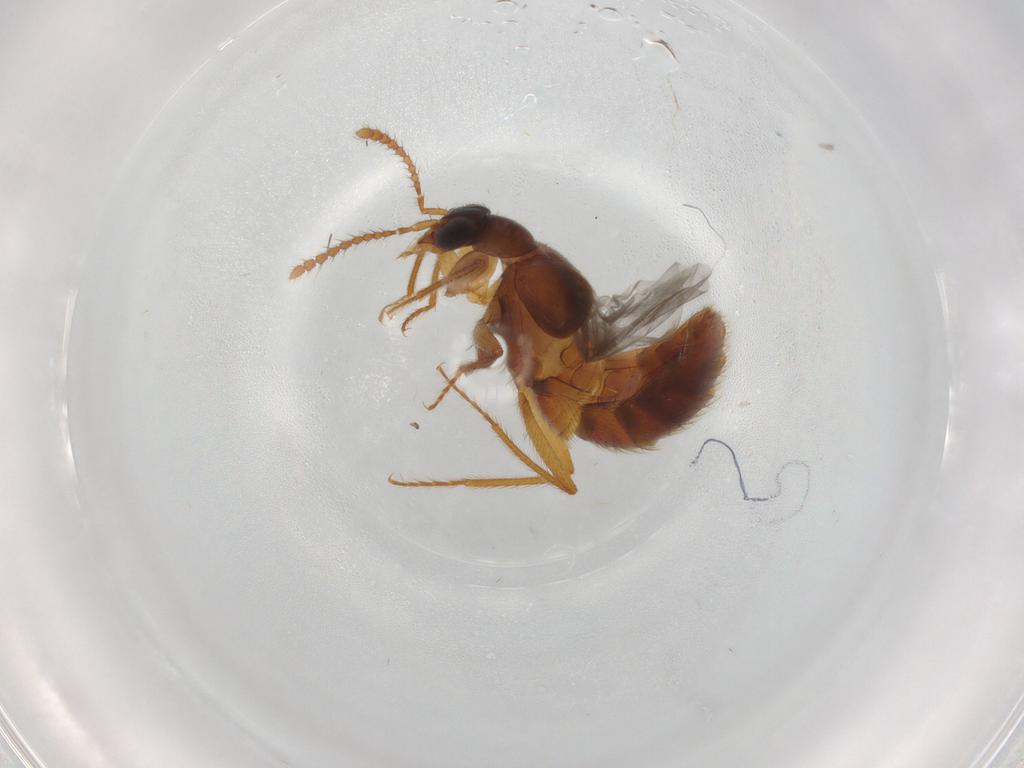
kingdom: Animalia
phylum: Arthropoda
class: Insecta
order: Coleoptera
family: Staphylinidae
